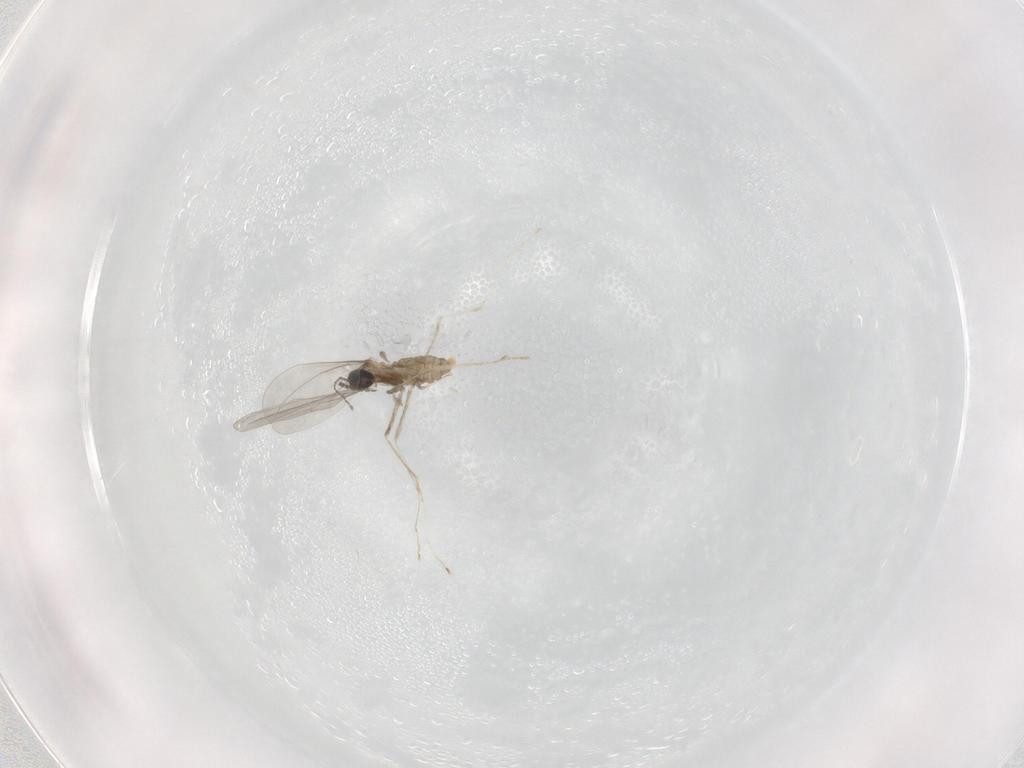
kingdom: Animalia
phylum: Arthropoda
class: Insecta
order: Diptera
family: Cecidomyiidae
